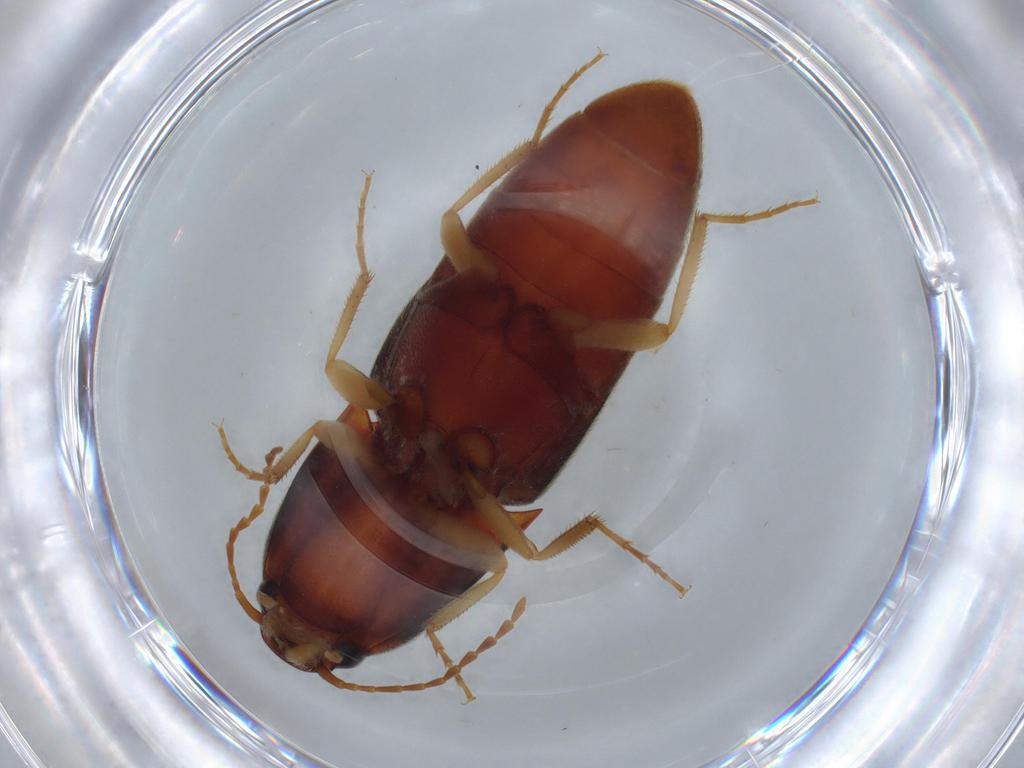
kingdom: Animalia
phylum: Arthropoda
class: Insecta
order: Coleoptera
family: Elateridae
